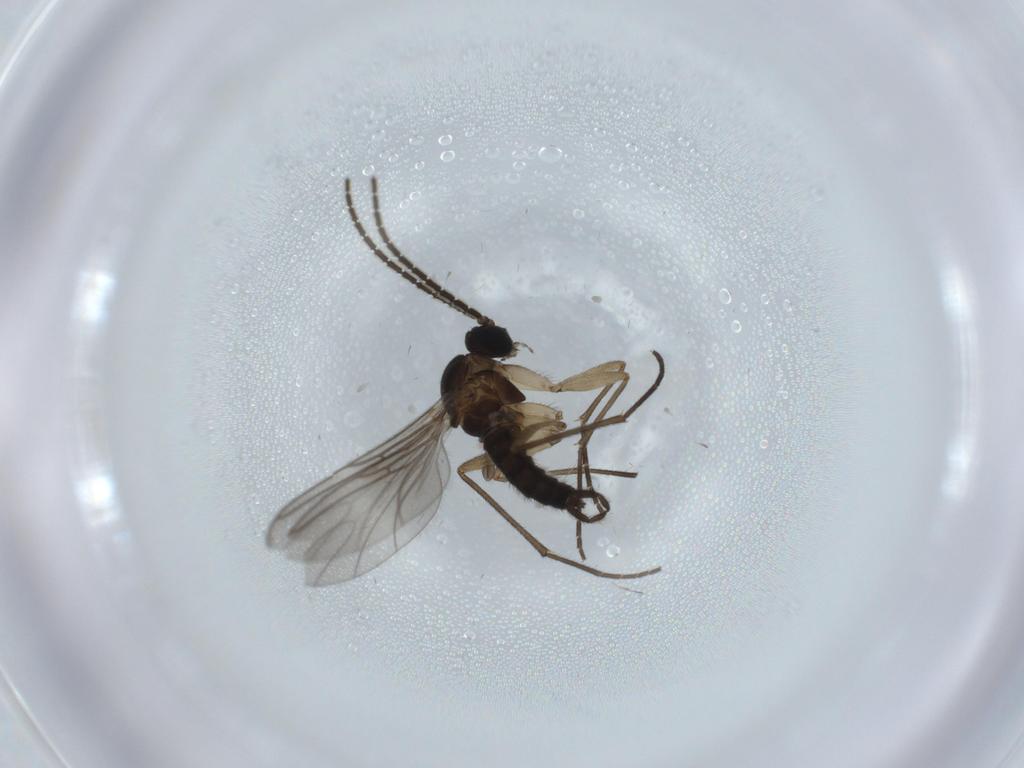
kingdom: Animalia
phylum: Arthropoda
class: Insecta
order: Diptera
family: Sciaridae
